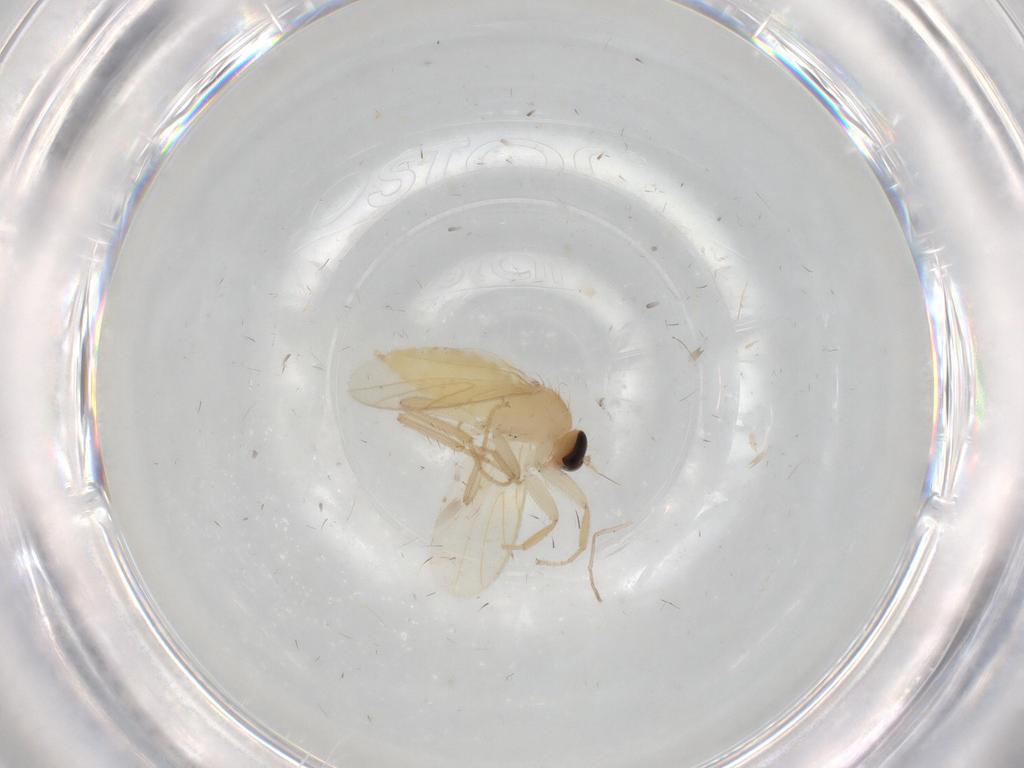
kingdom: Animalia
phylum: Arthropoda
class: Insecta
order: Diptera
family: Hybotidae
